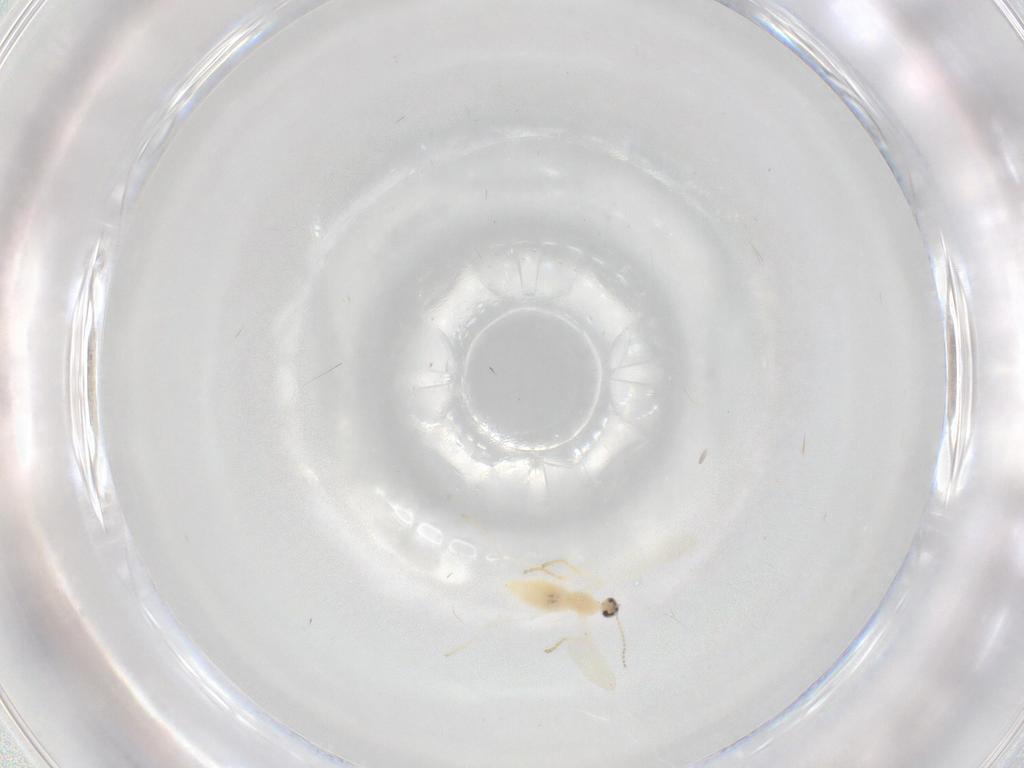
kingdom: Animalia
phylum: Arthropoda
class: Insecta
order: Diptera
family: Cecidomyiidae
